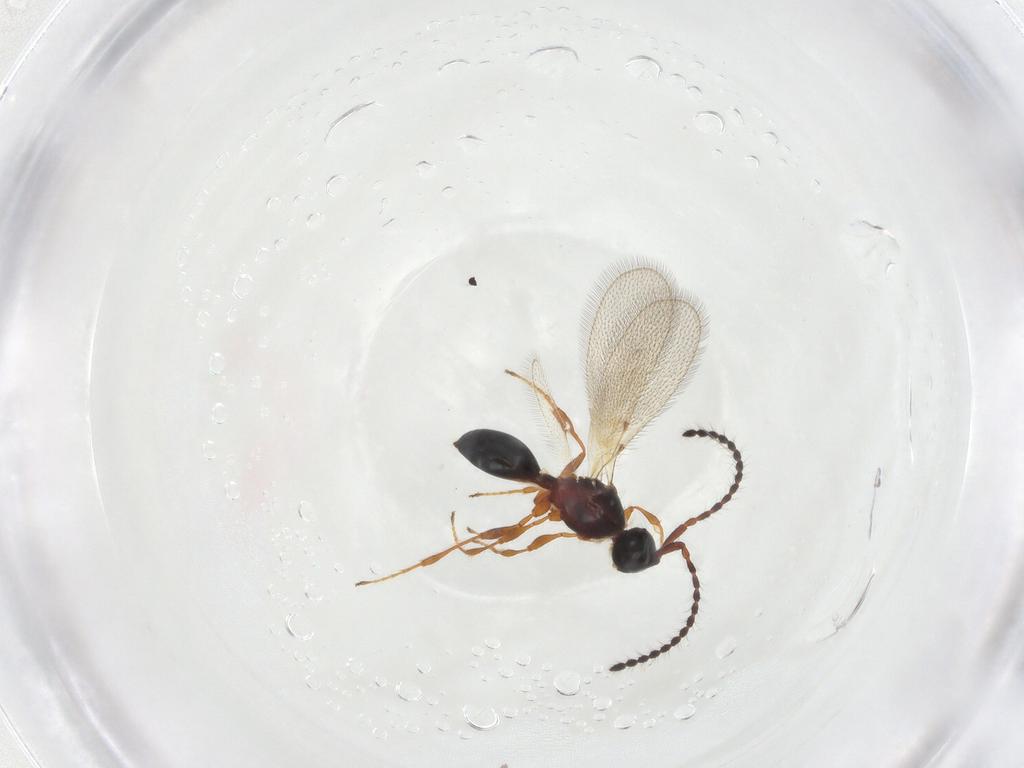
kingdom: Animalia
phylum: Arthropoda
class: Insecta
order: Hymenoptera
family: Diapriidae
